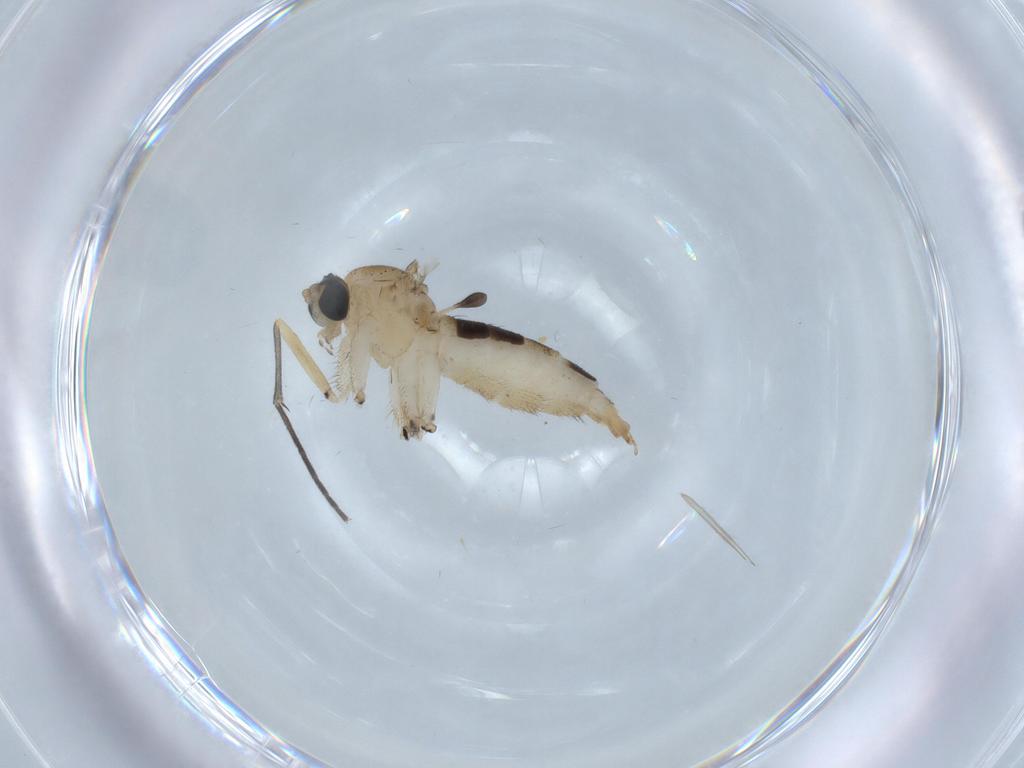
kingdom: Animalia
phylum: Arthropoda
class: Insecta
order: Diptera
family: Sciaridae
